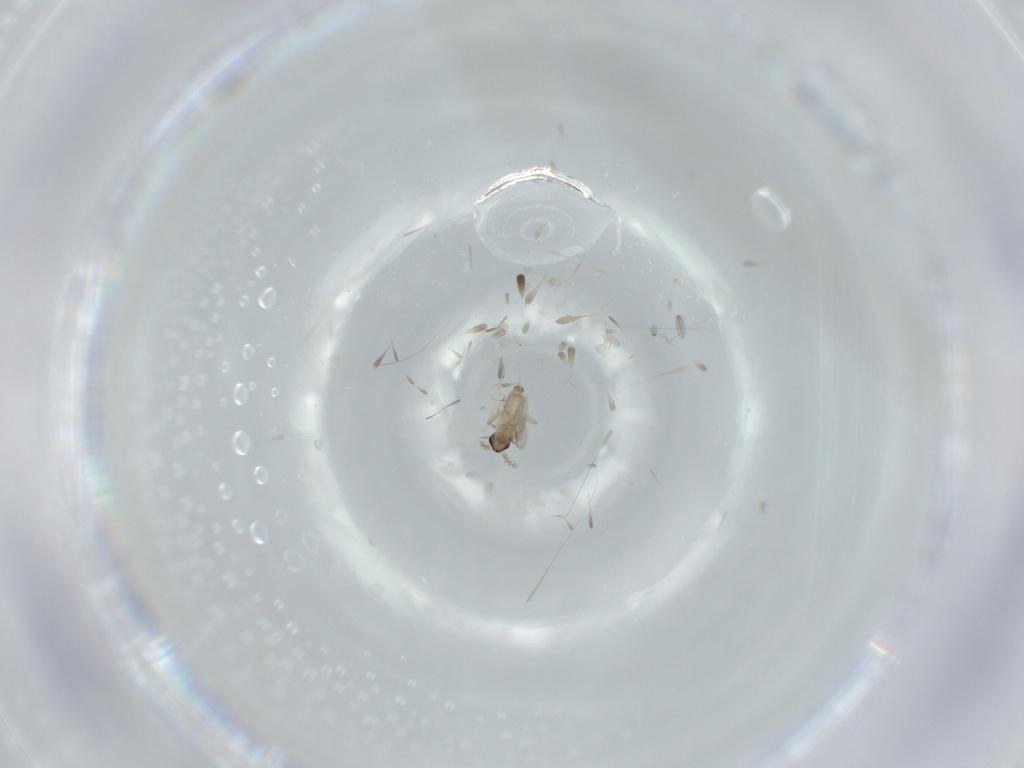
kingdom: Animalia
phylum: Arthropoda
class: Insecta
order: Diptera
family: Cecidomyiidae
